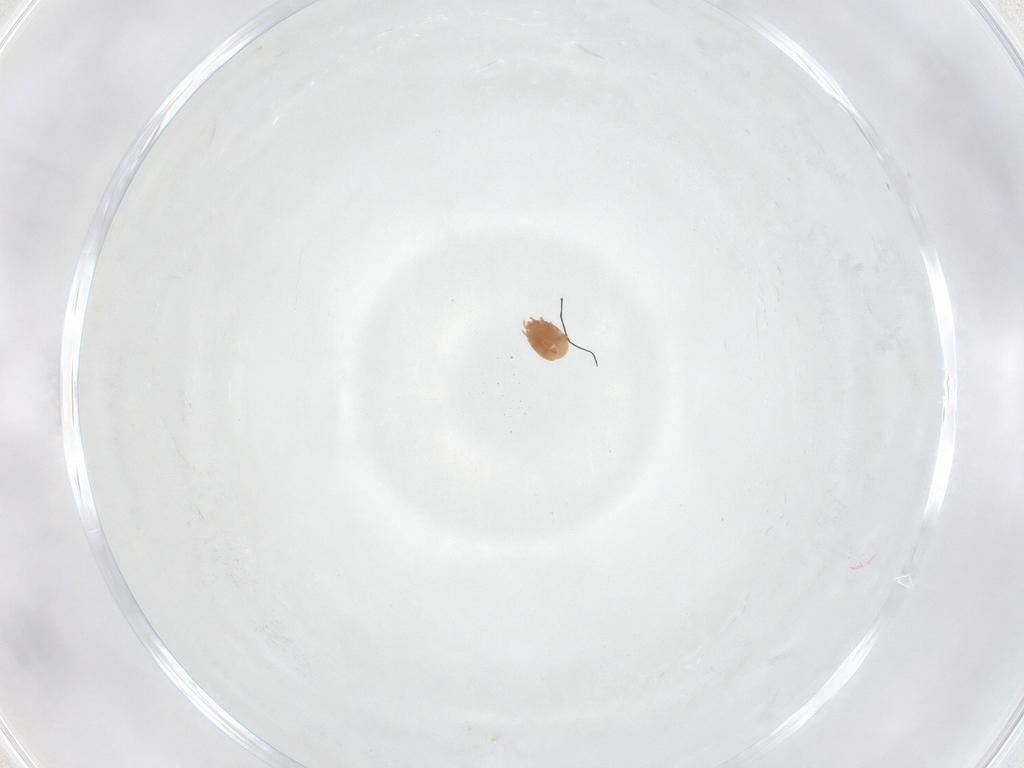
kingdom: Animalia
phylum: Arthropoda
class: Arachnida
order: Mesostigmata
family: Trematuridae
